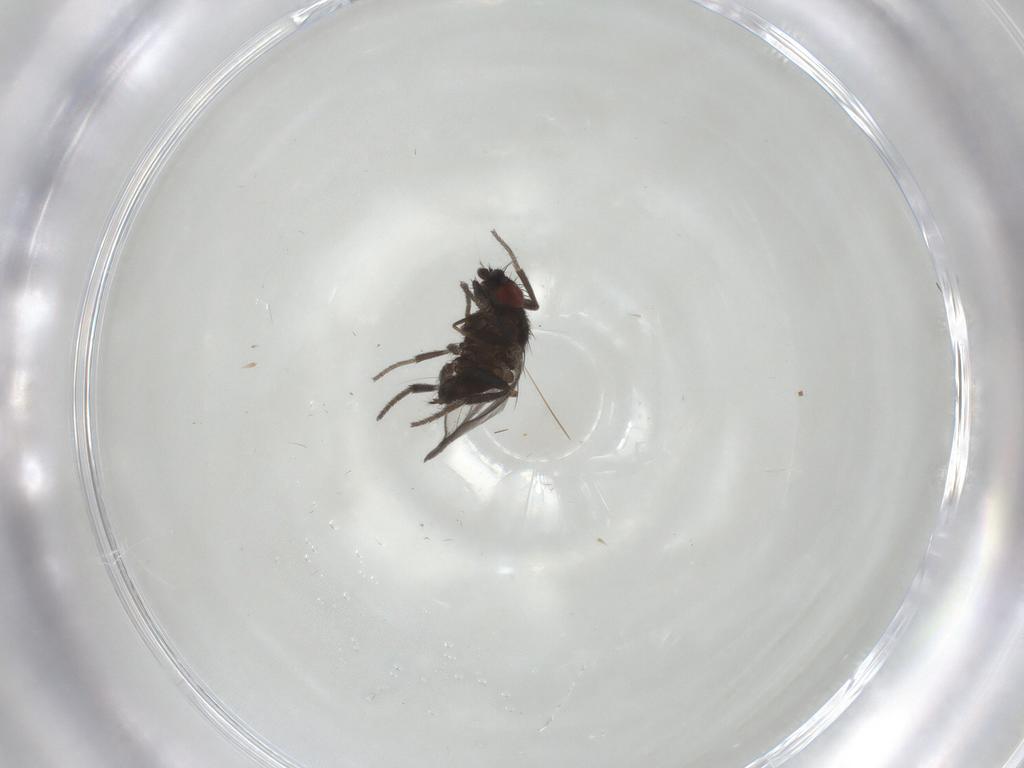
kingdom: Animalia
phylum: Arthropoda
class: Insecta
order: Diptera
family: Milichiidae
